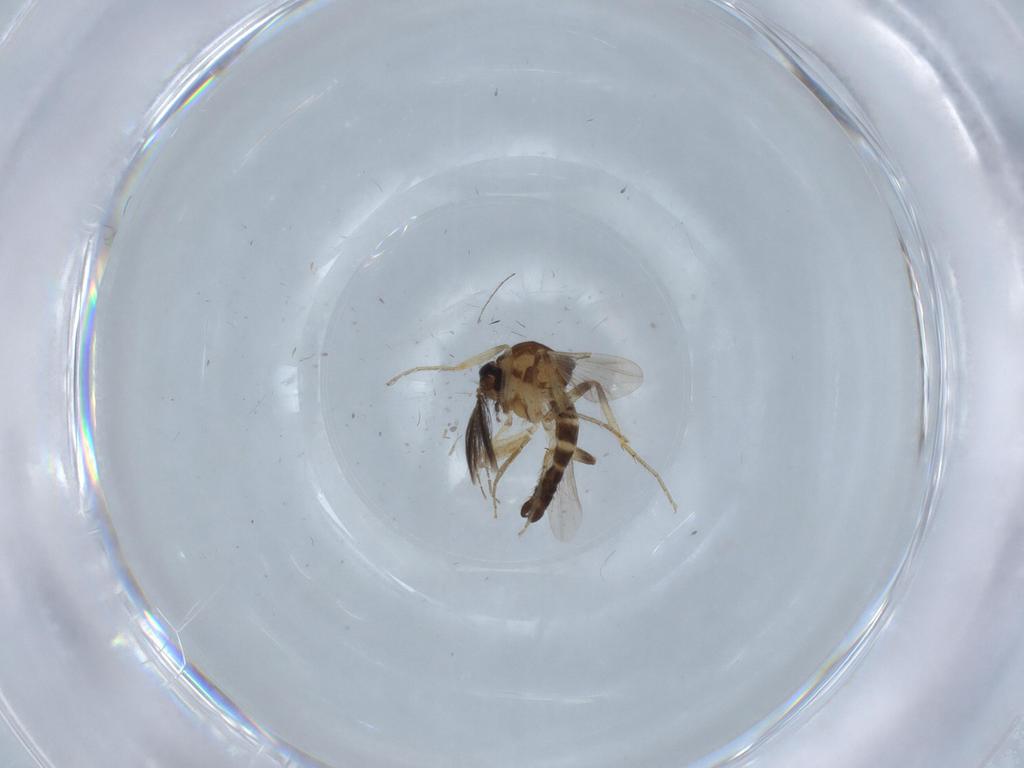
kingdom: Animalia
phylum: Arthropoda
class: Insecta
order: Diptera
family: Ceratopogonidae
